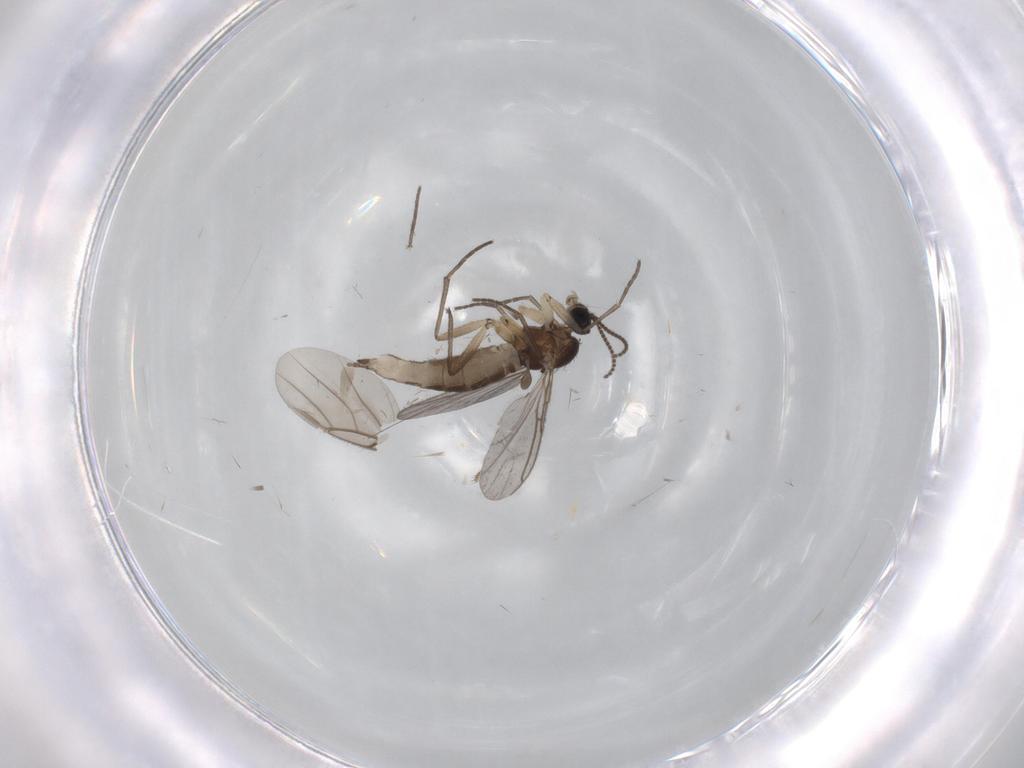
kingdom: Animalia
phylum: Arthropoda
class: Insecta
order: Diptera
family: Sciaridae
